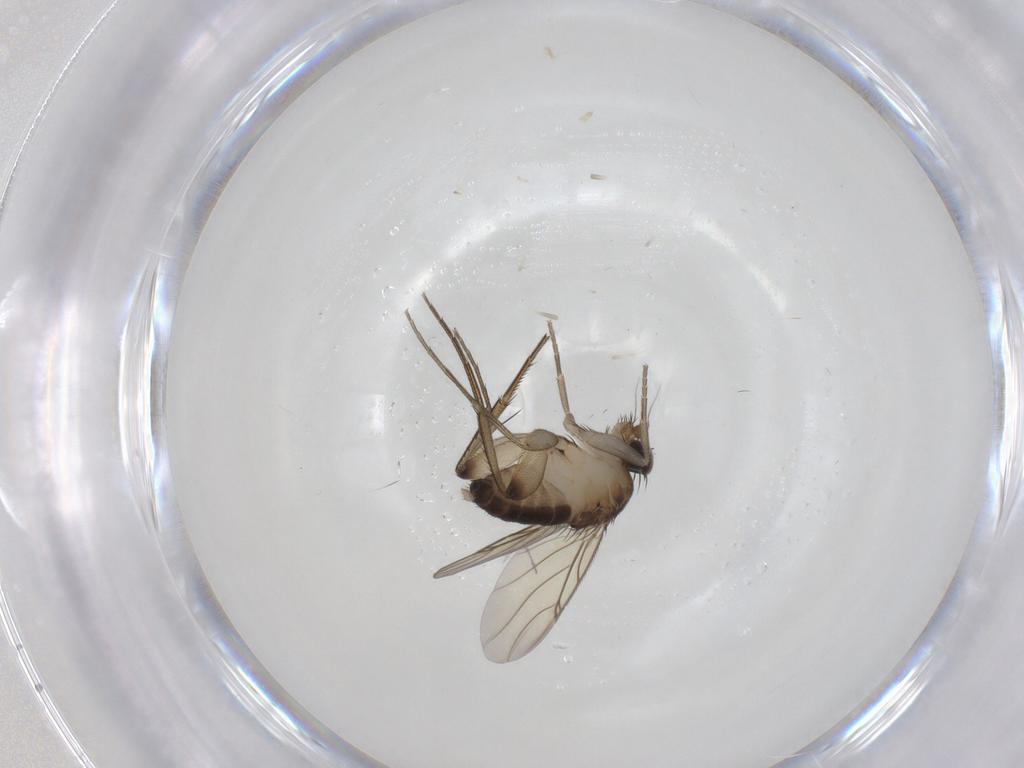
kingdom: Animalia
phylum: Arthropoda
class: Insecta
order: Diptera
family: Phoridae
